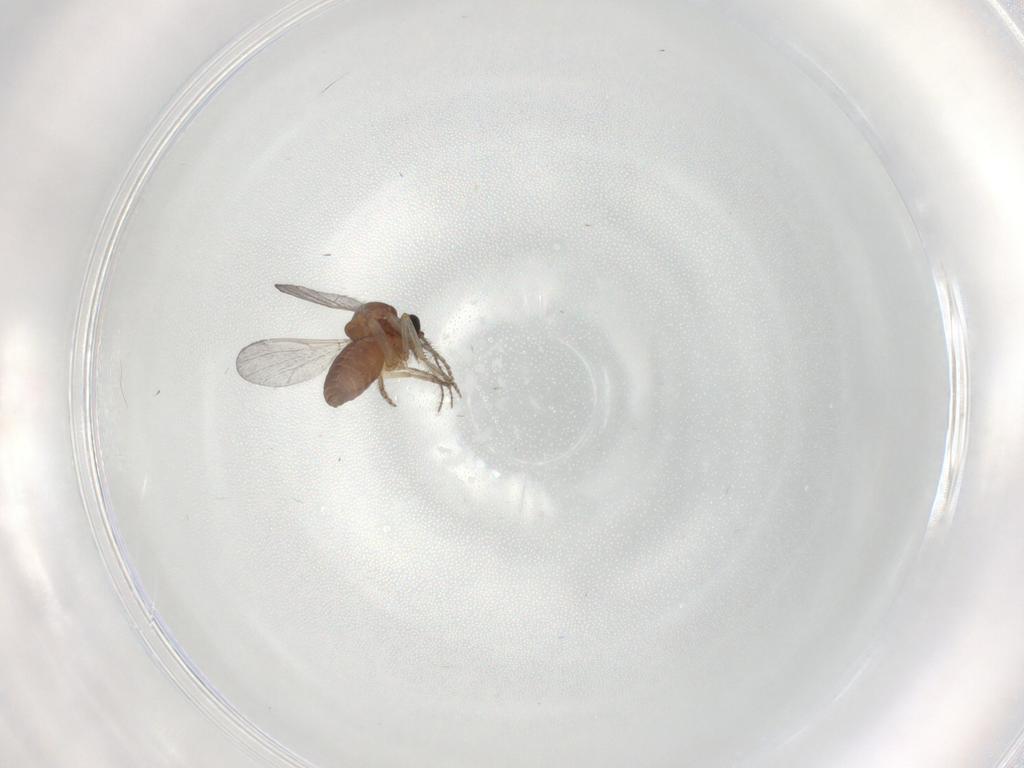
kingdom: Animalia
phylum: Arthropoda
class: Insecta
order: Diptera
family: Ceratopogonidae
